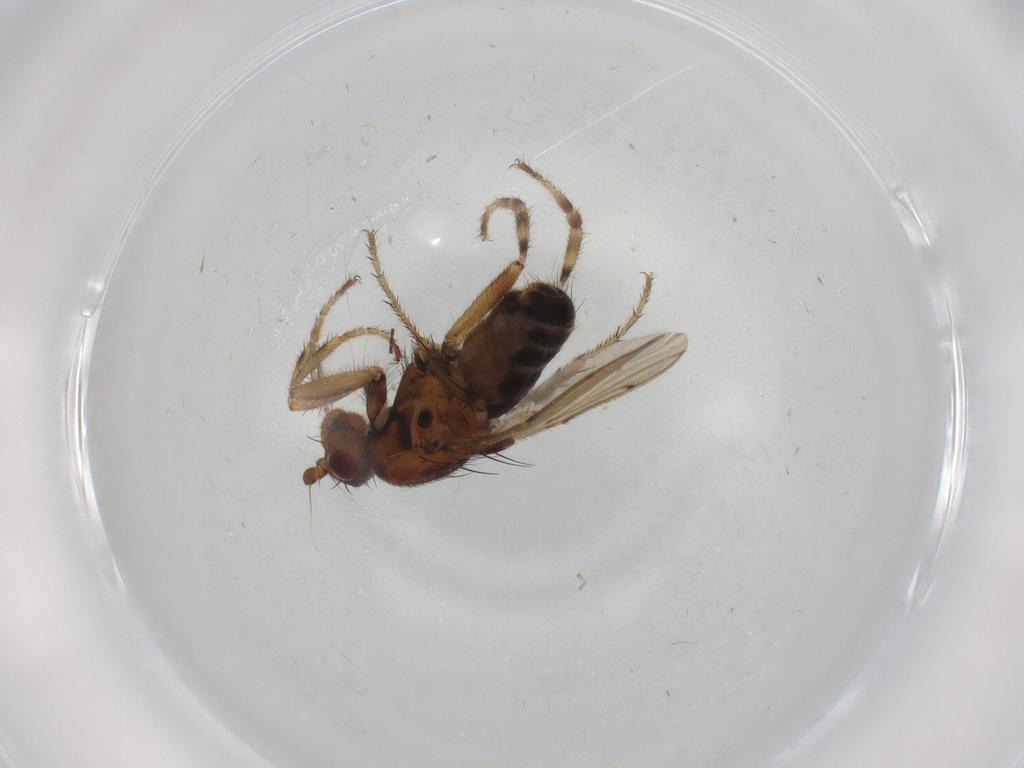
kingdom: Animalia
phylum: Arthropoda
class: Insecta
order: Diptera
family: Sphaeroceridae
